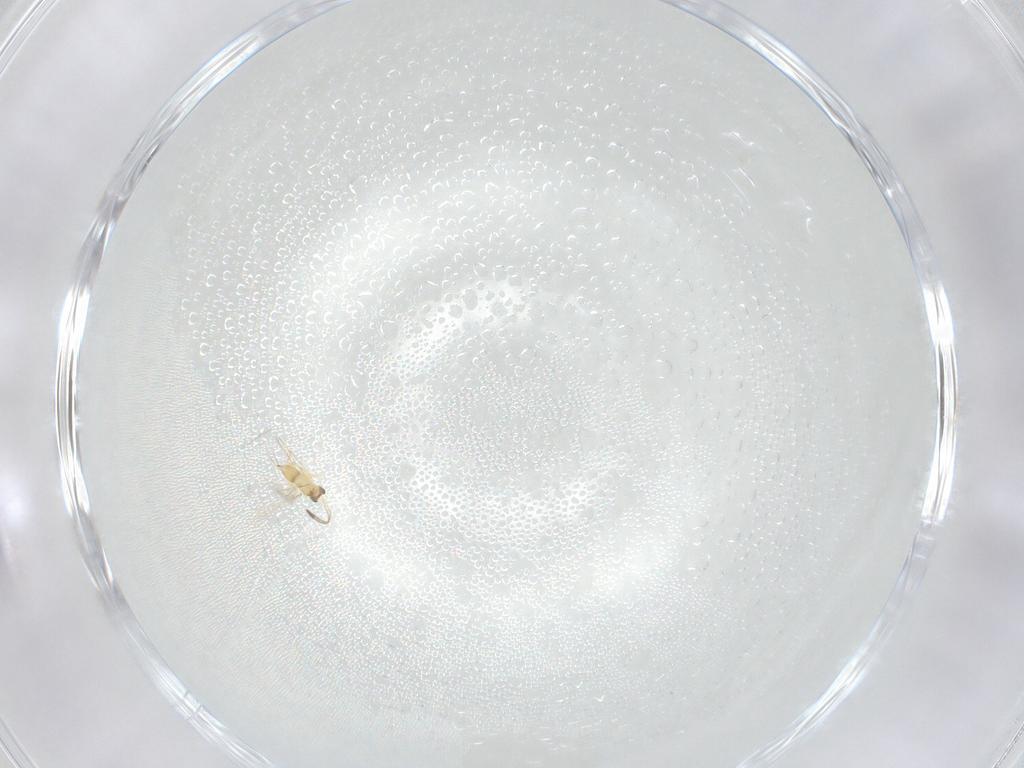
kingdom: Animalia
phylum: Arthropoda
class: Insecta
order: Hymenoptera
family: Mymaridae
